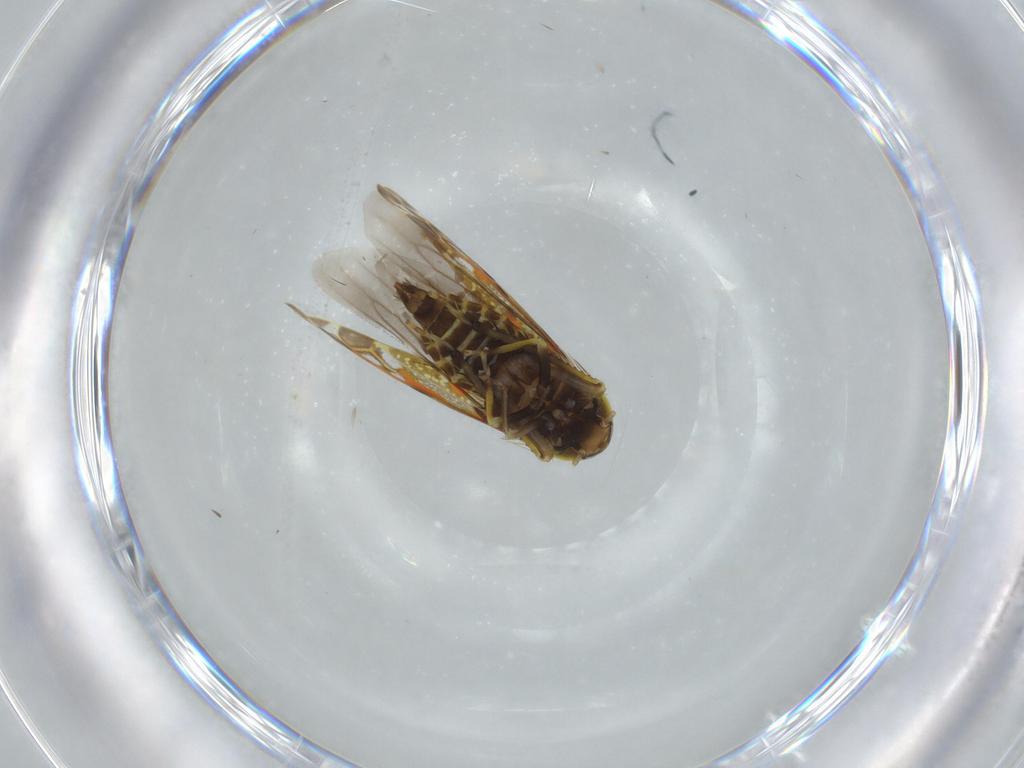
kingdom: Animalia
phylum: Arthropoda
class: Insecta
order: Hemiptera
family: Cicadellidae
